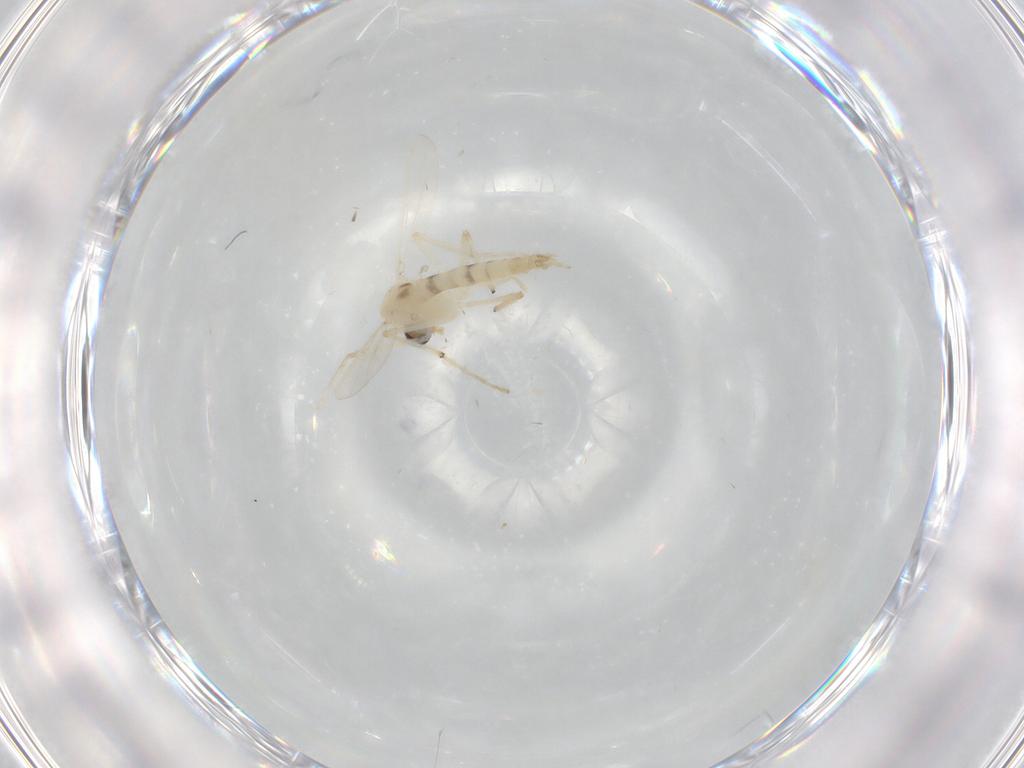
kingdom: Animalia
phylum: Arthropoda
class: Insecta
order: Diptera
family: Chironomidae
